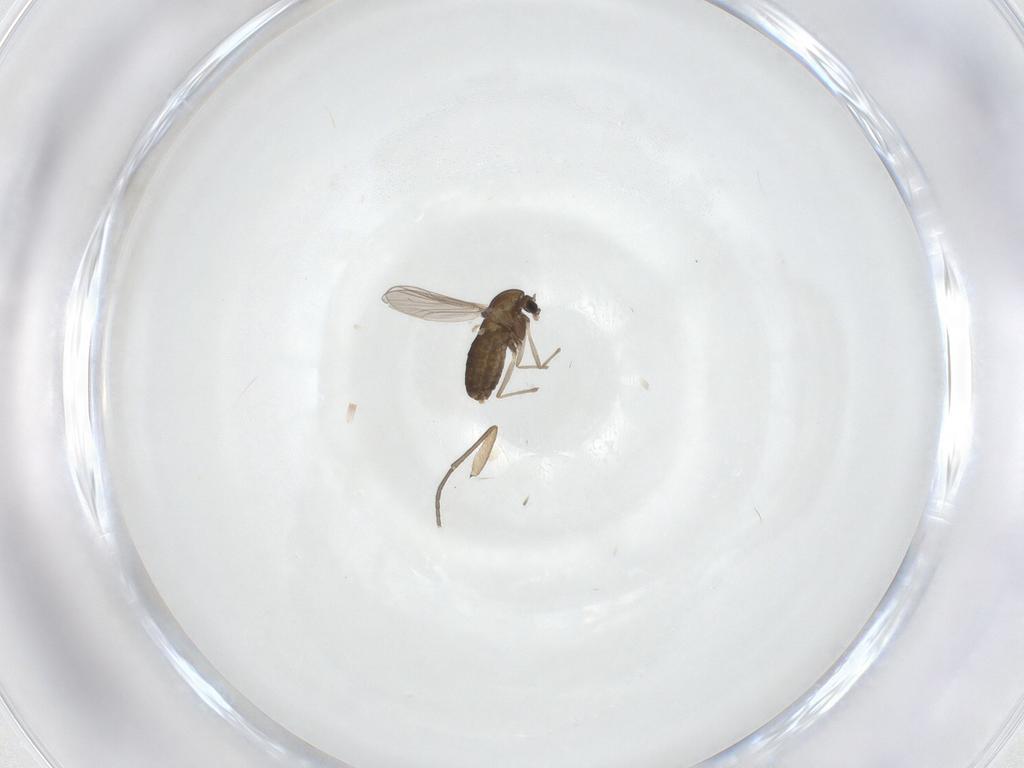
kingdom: Animalia
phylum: Arthropoda
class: Insecta
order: Diptera
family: Chironomidae
